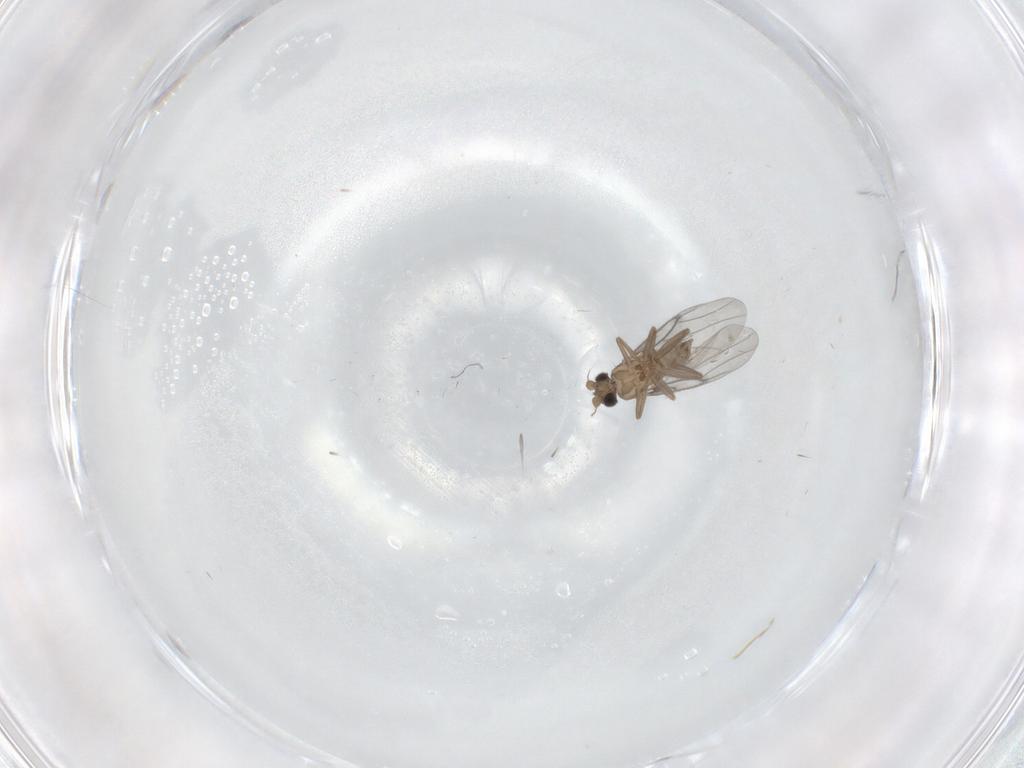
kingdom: Animalia
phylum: Arthropoda
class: Insecta
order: Diptera
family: Cecidomyiidae
